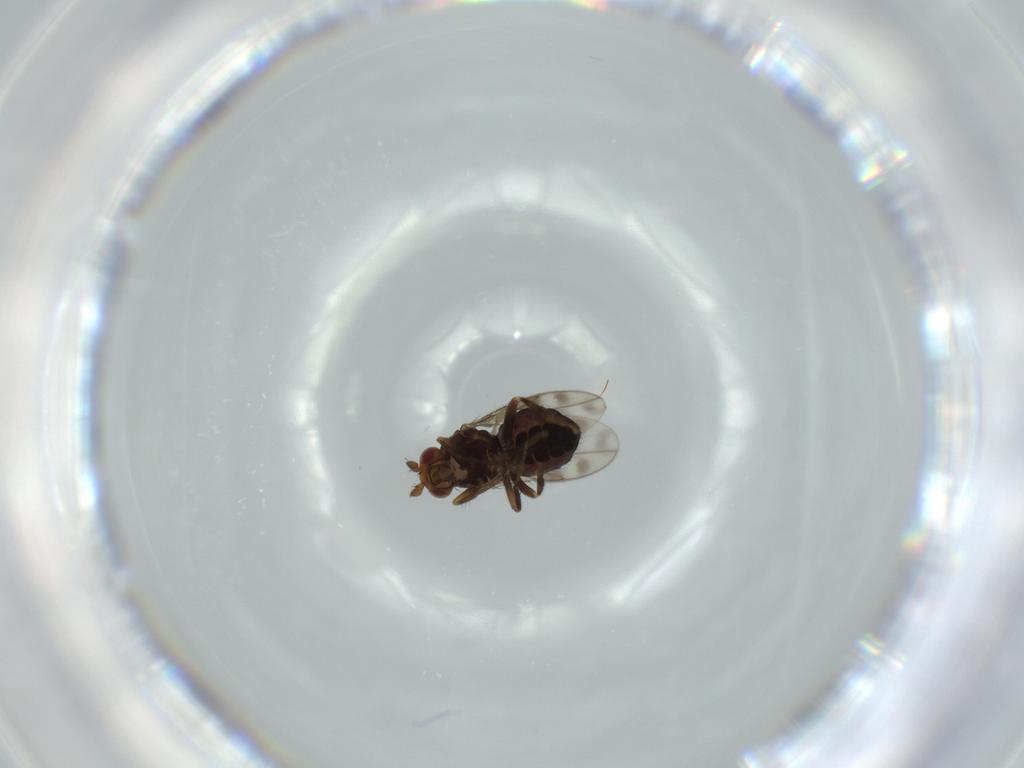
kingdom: Animalia
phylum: Arthropoda
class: Insecta
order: Diptera
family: Sphaeroceridae
